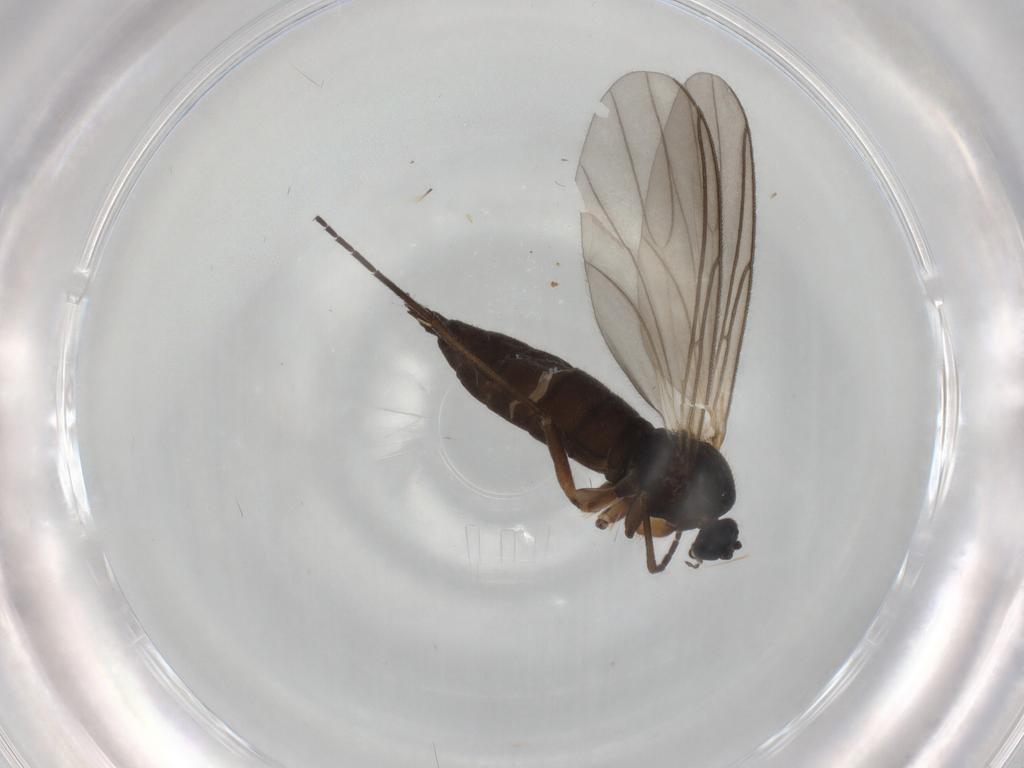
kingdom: Animalia
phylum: Arthropoda
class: Insecta
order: Diptera
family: Sciaridae
